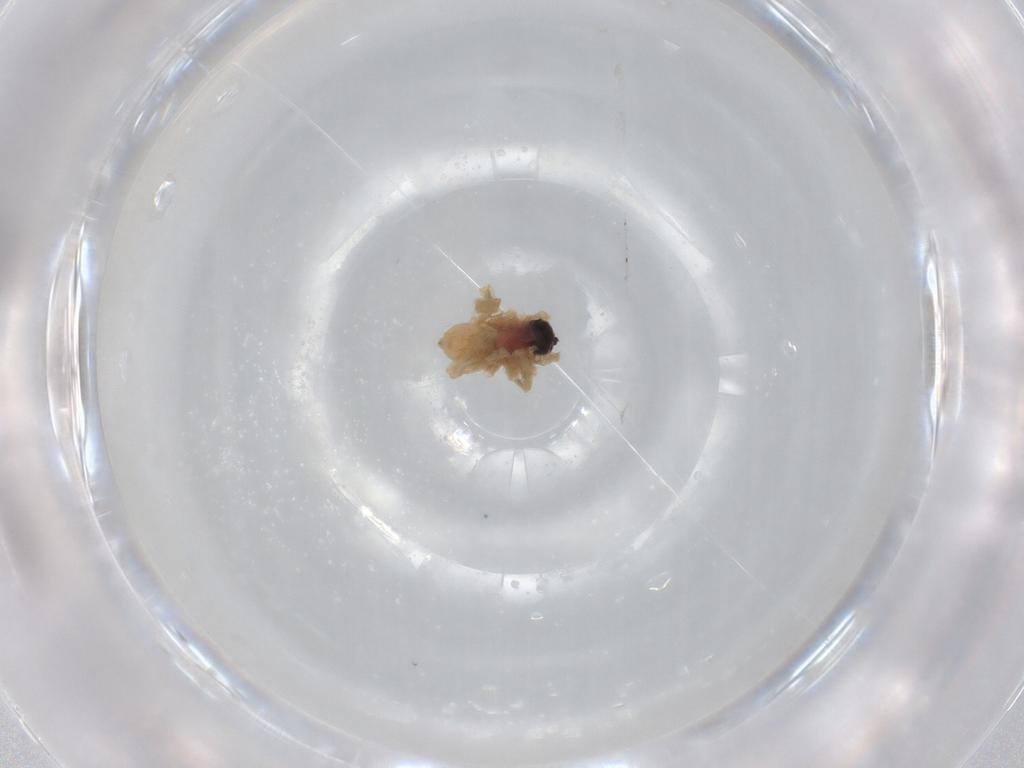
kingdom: Animalia
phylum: Arthropoda
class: Arachnida
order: Araneae
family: Lycosidae
